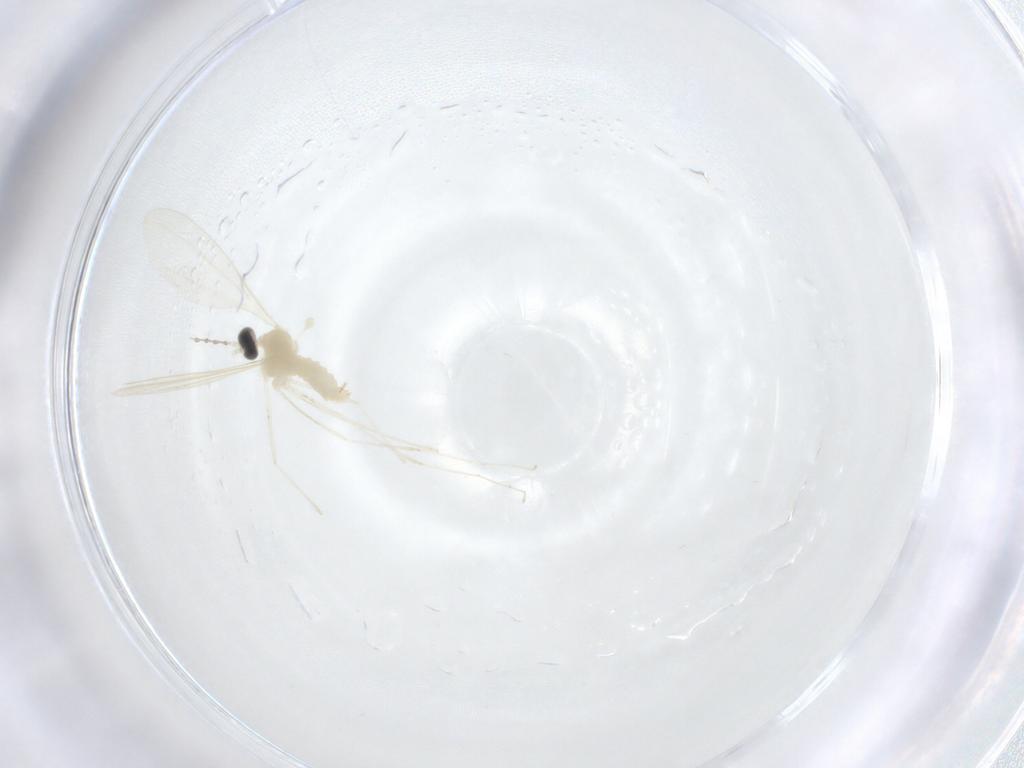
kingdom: Animalia
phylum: Arthropoda
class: Insecta
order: Diptera
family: Cecidomyiidae
